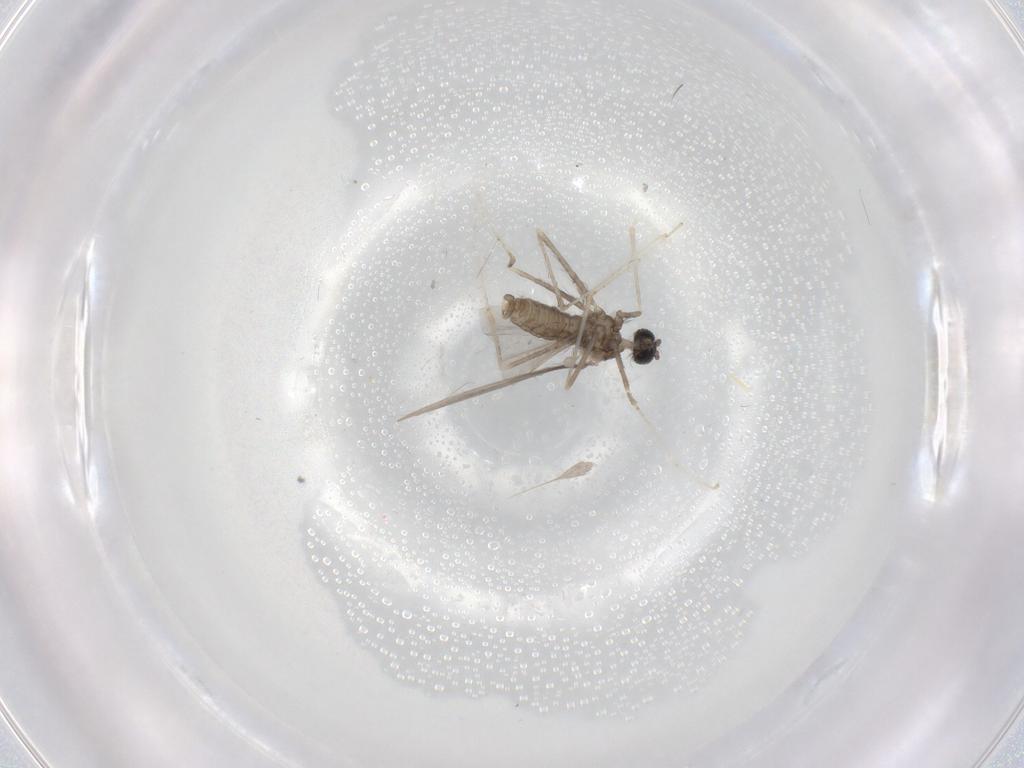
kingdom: Animalia
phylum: Arthropoda
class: Insecta
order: Diptera
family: Cecidomyiidae
